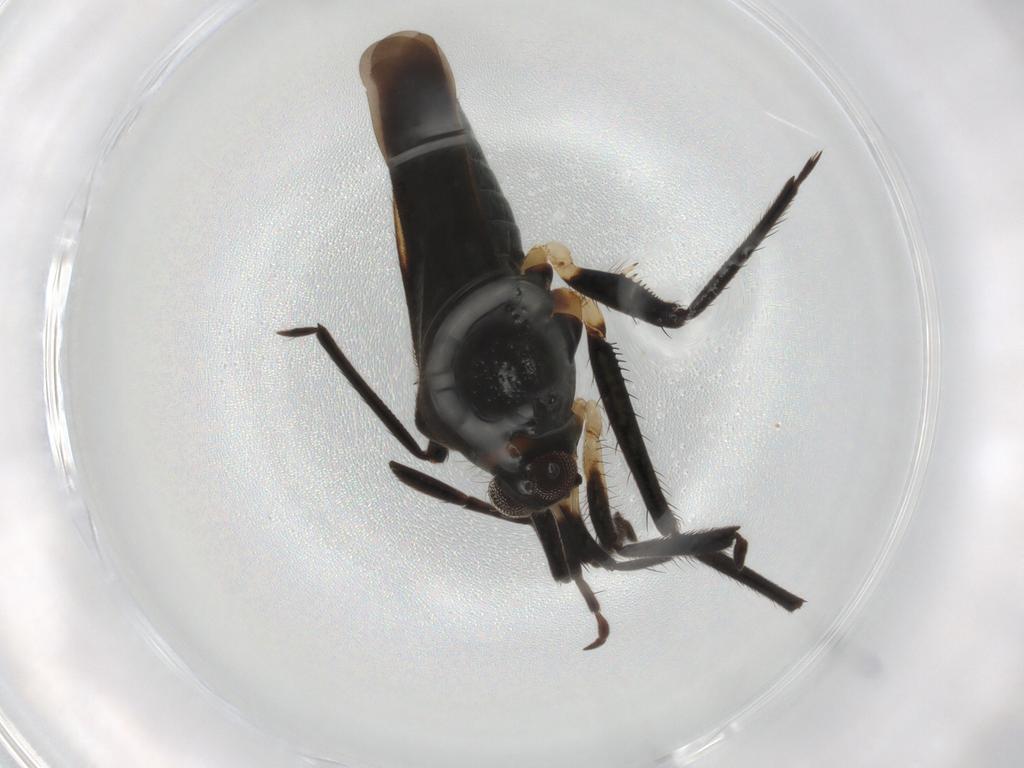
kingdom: Animalia
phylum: Arthropoda
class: Insecta
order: Hemiptera
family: Veliidae
